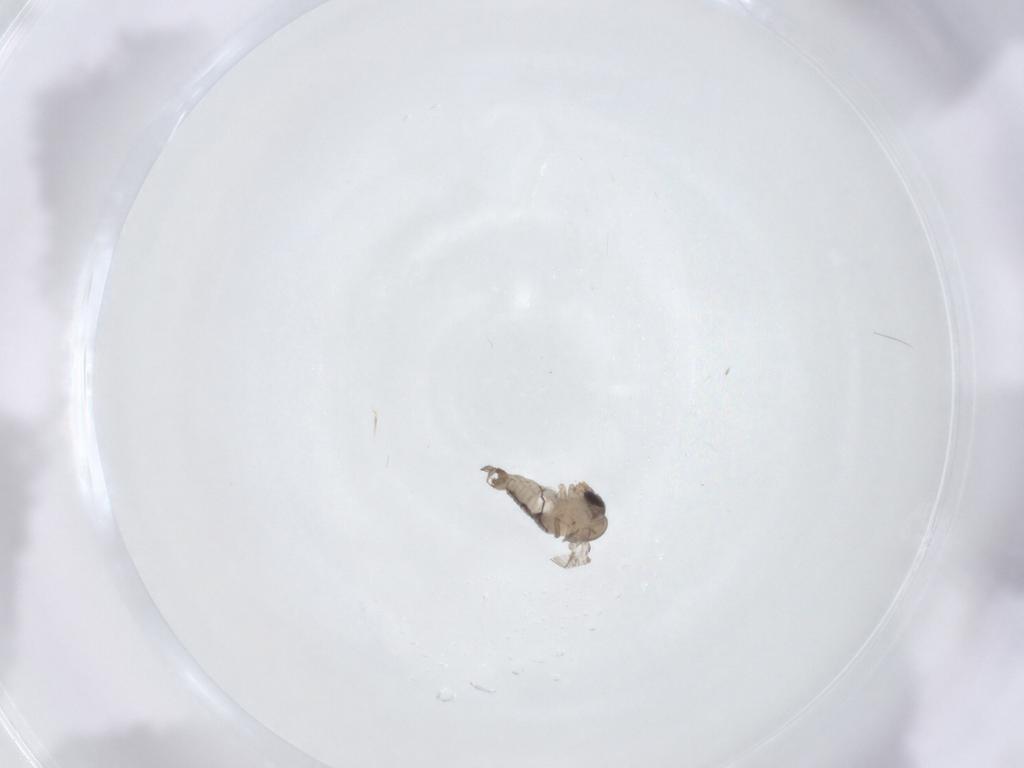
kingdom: Animalia
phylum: Arthropoda
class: Insecta
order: Diptera
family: Psychodidae
